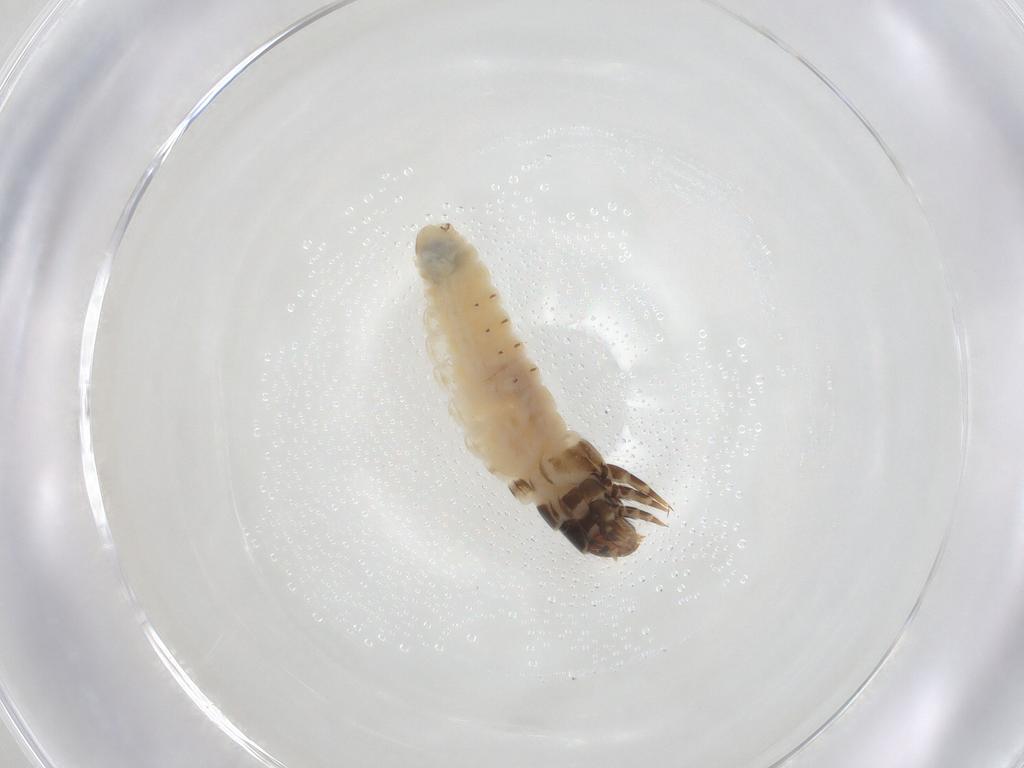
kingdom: Animalia
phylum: Arthropoda
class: Insecta
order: Lepidoptera
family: Psychidae
